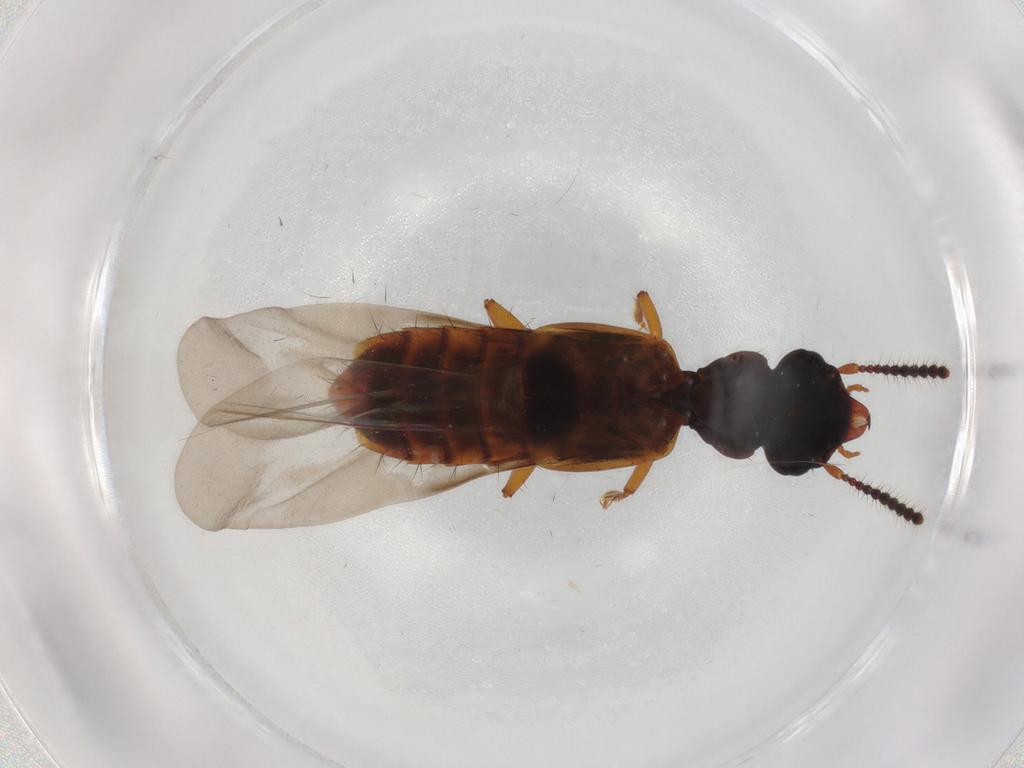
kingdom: Animalia
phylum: Arthropoda
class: Insecta
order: Coleoptera
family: Staphylinidae
